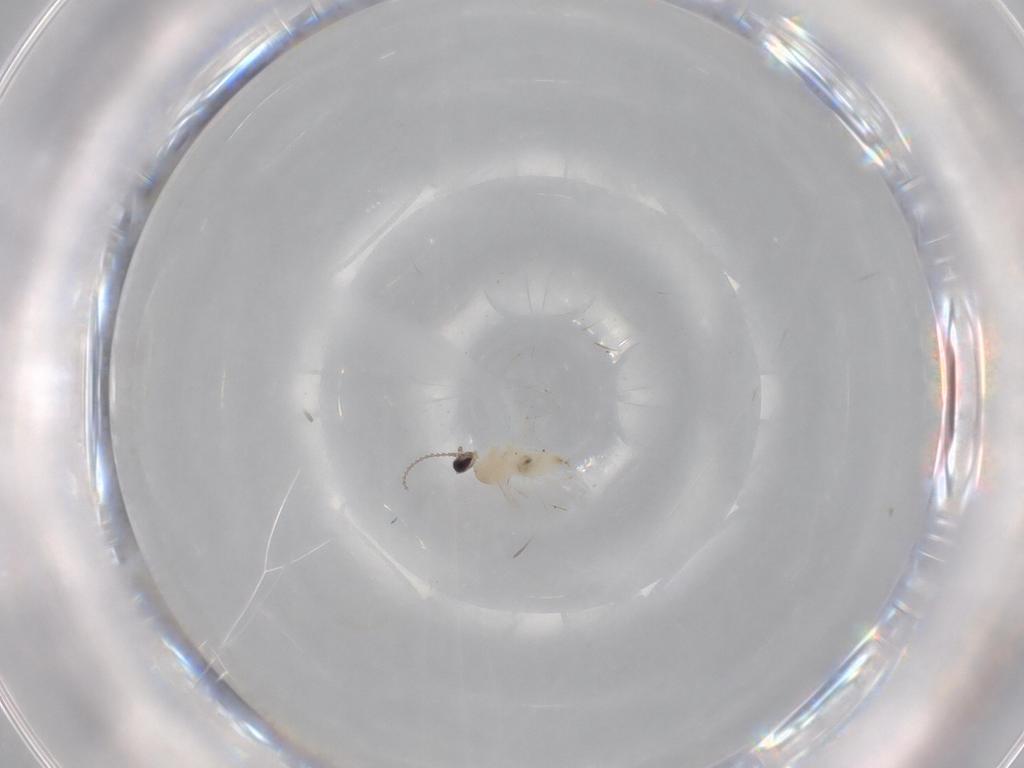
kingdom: Animalia
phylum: Arthropoda
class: Insecta
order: Diptera
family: Cecidomyiidae
